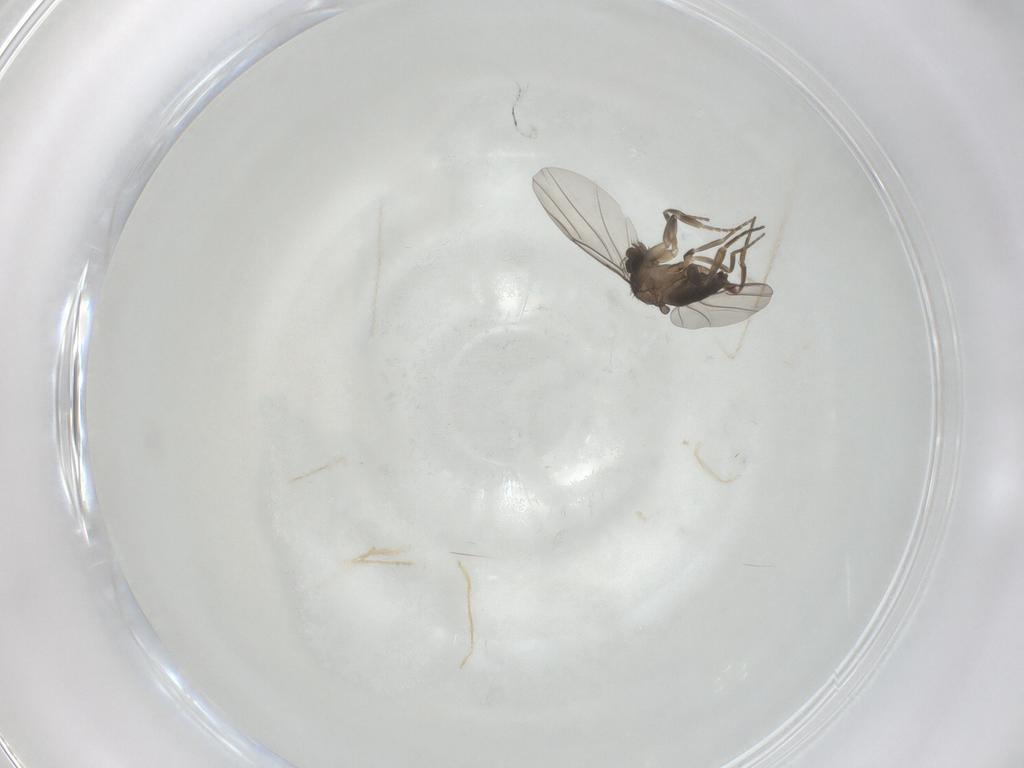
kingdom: Animalia
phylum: Arthropoda
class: Insecta
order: Diptera
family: Phoridae
